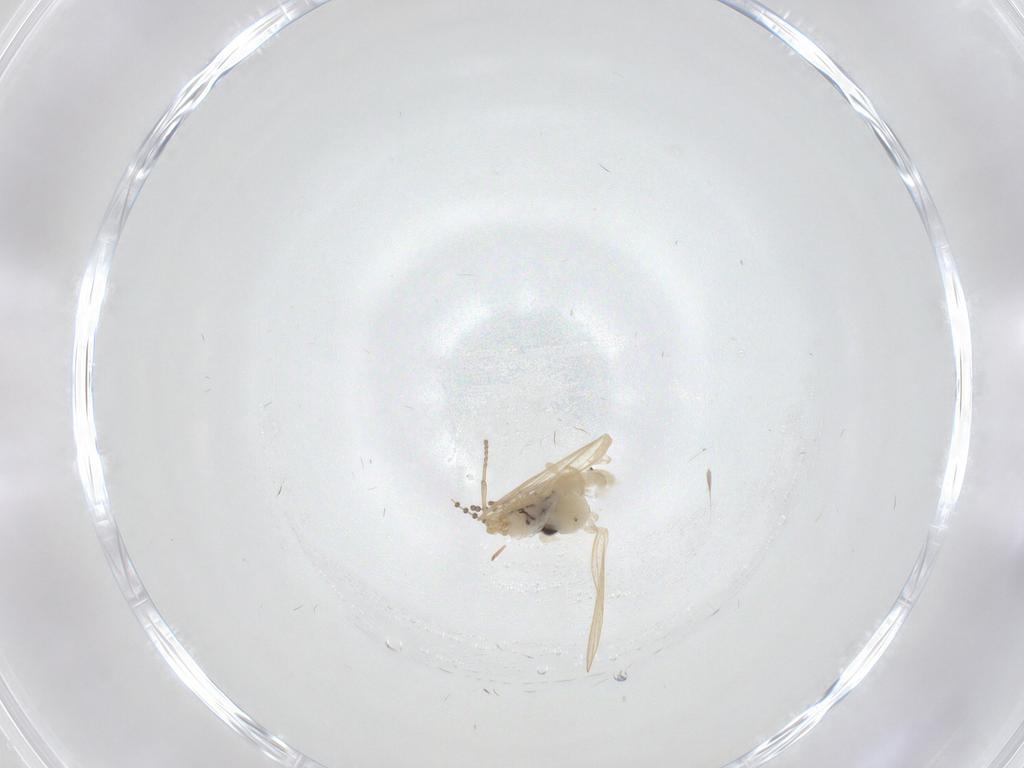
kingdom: Animalia
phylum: Arthropoda
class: Insecta
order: Diptera
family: Psychodidae
